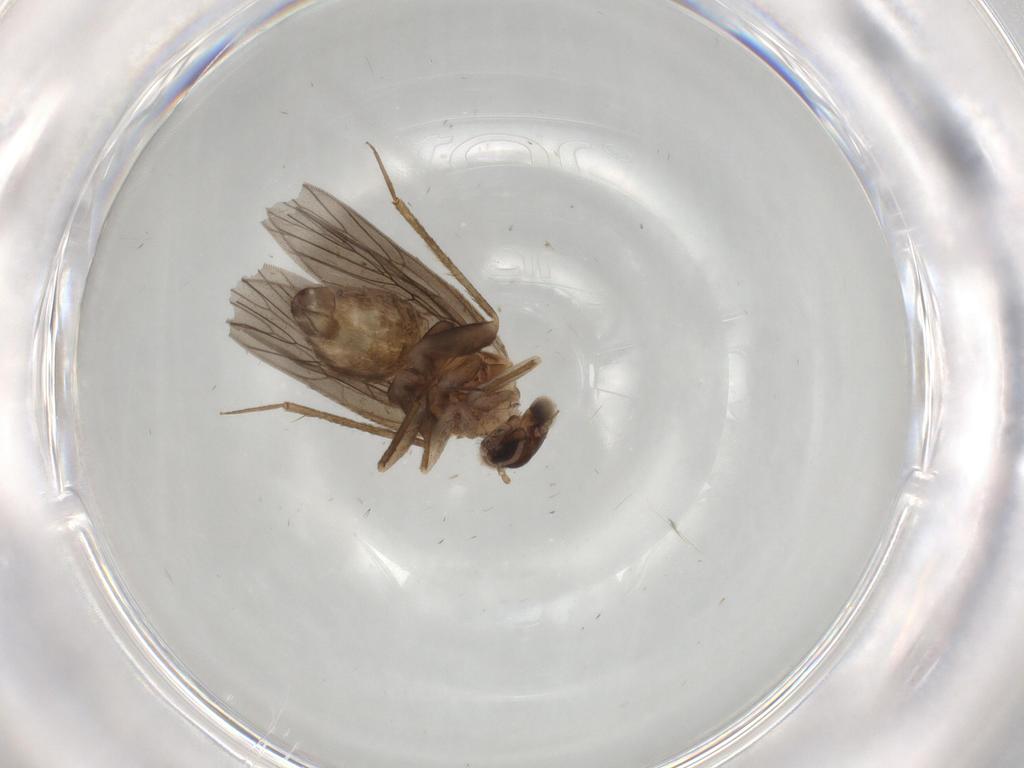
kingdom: Animalia
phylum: Arthropoda
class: Insecta
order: Psocodea
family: Lepidopsocidae
